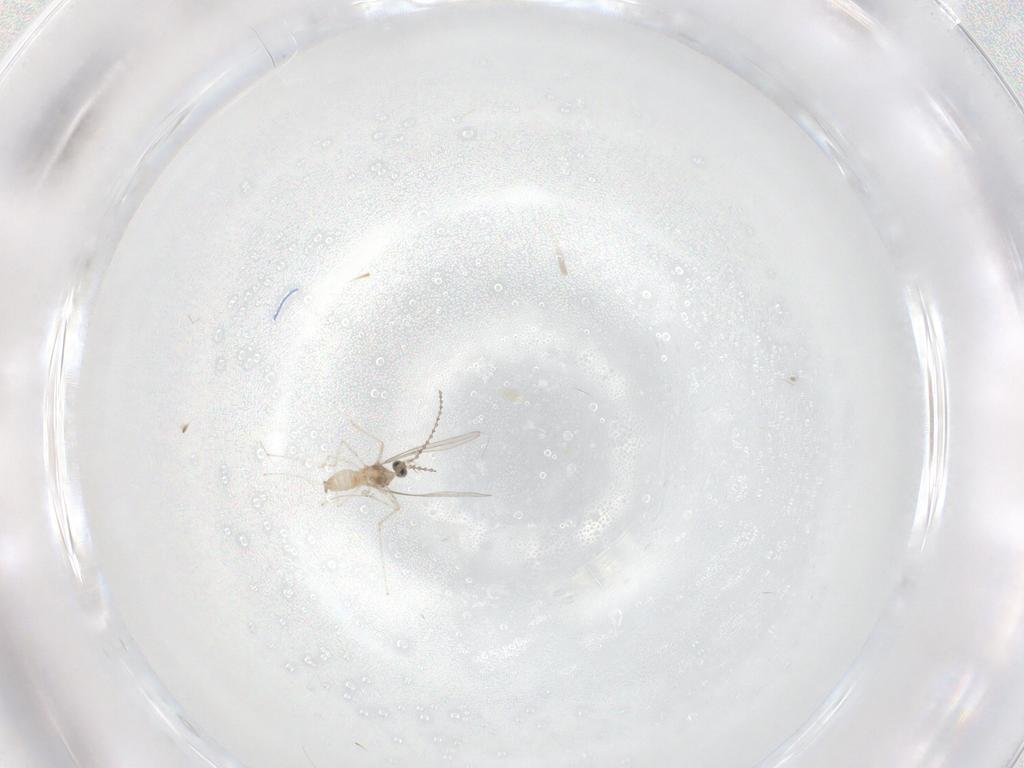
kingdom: Animalia
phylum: Arthropoda
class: Insecta
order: Diptera
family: Cecidomyiidae
